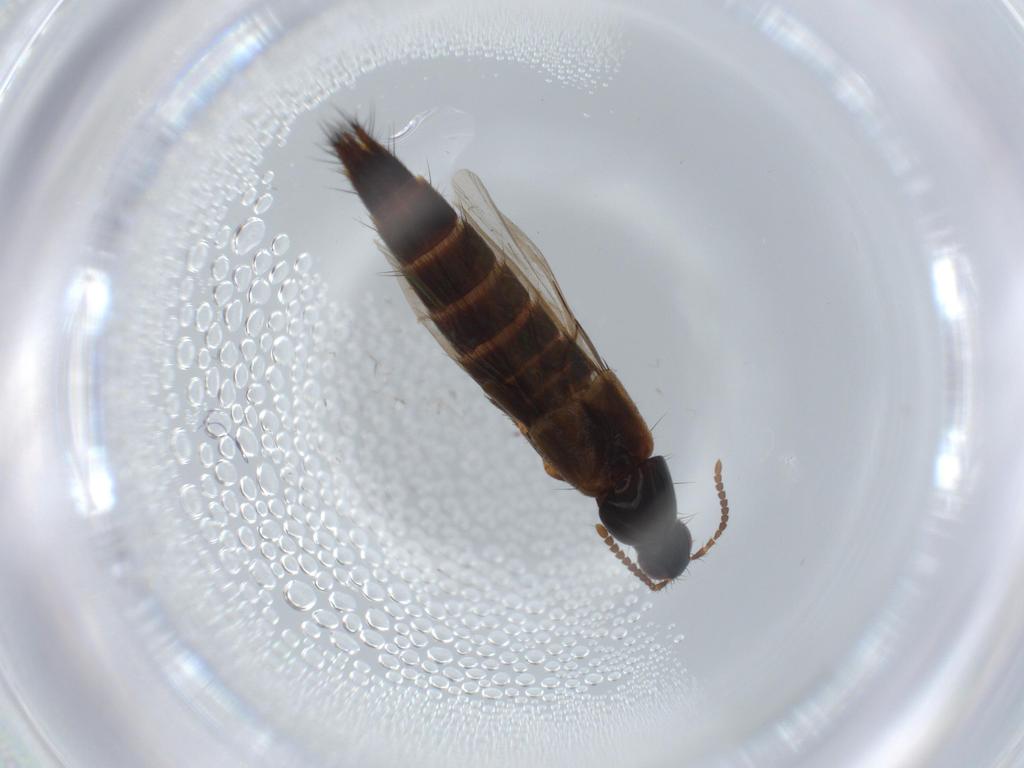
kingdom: Animalia
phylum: Arthropoda
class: Insecta
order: Coleoptera
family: Staphylinidae
